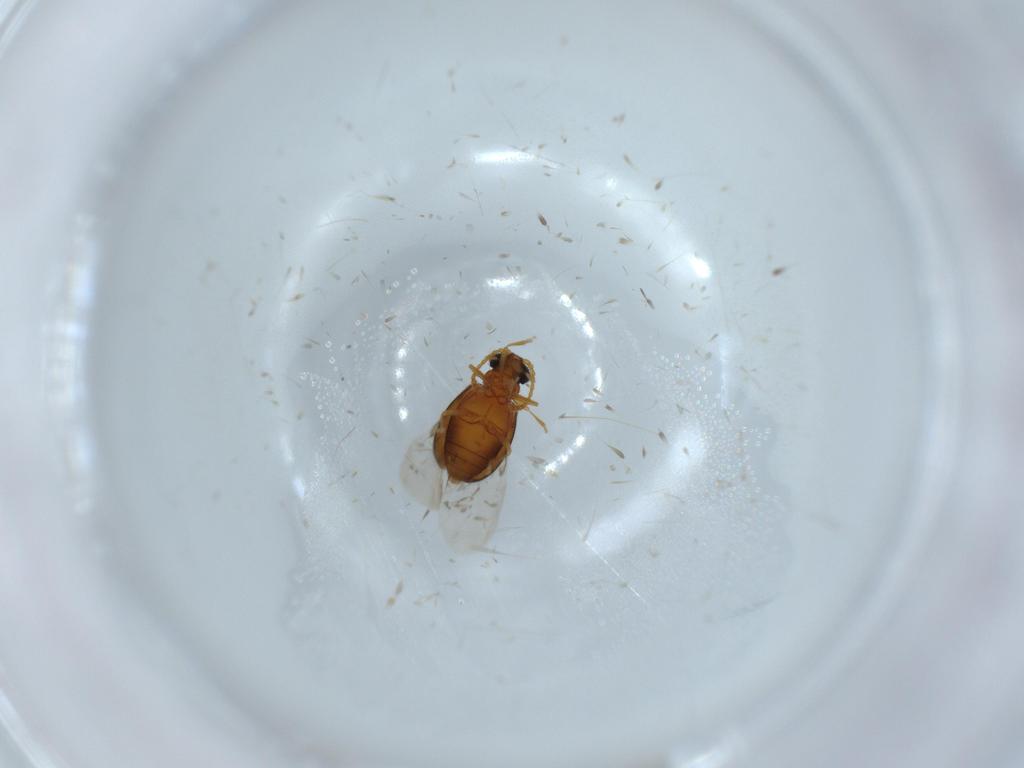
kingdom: Animalia
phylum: Arthropoda
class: Insecta
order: Coleoptera
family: Aderidae
